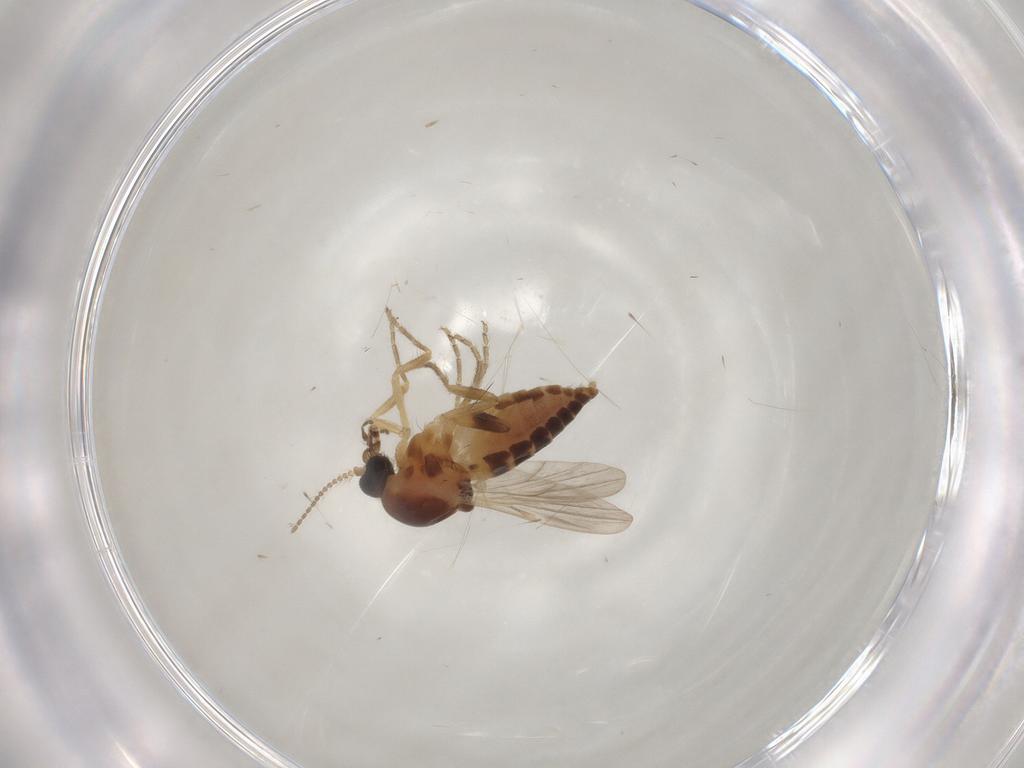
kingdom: Animalia
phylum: Arthropoda
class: Insecta
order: Diptera
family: Ceratopogonidae
